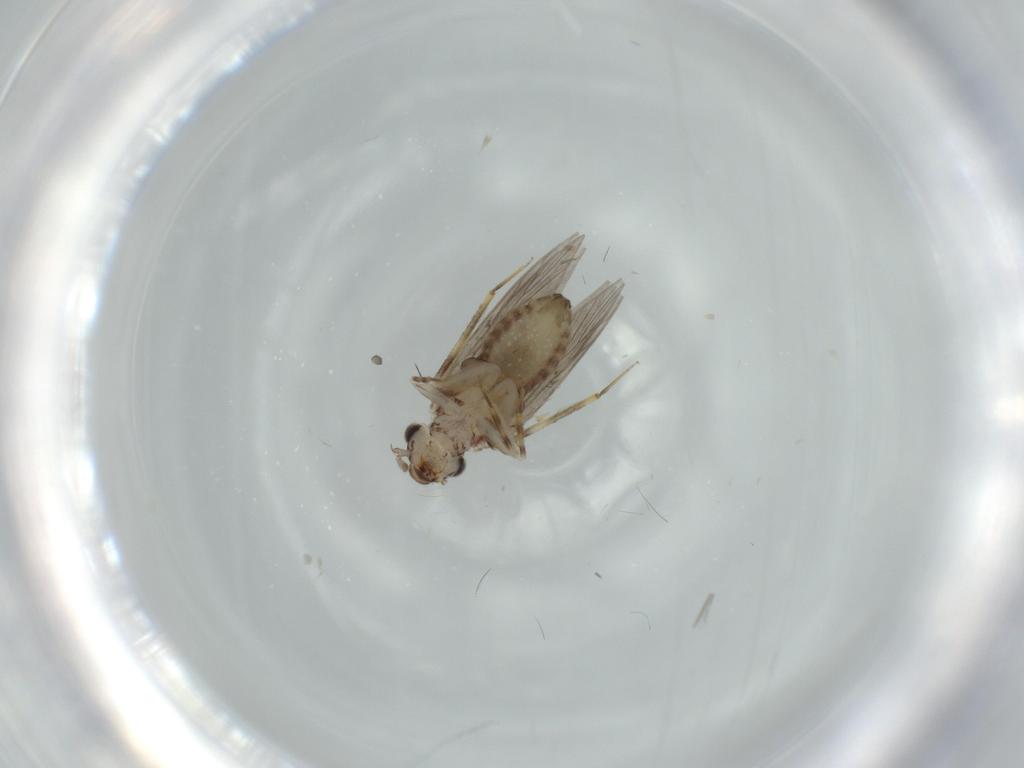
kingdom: Animalia
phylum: Arthropoda
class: Insecta
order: Psocodea
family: Lepidopsocidae
